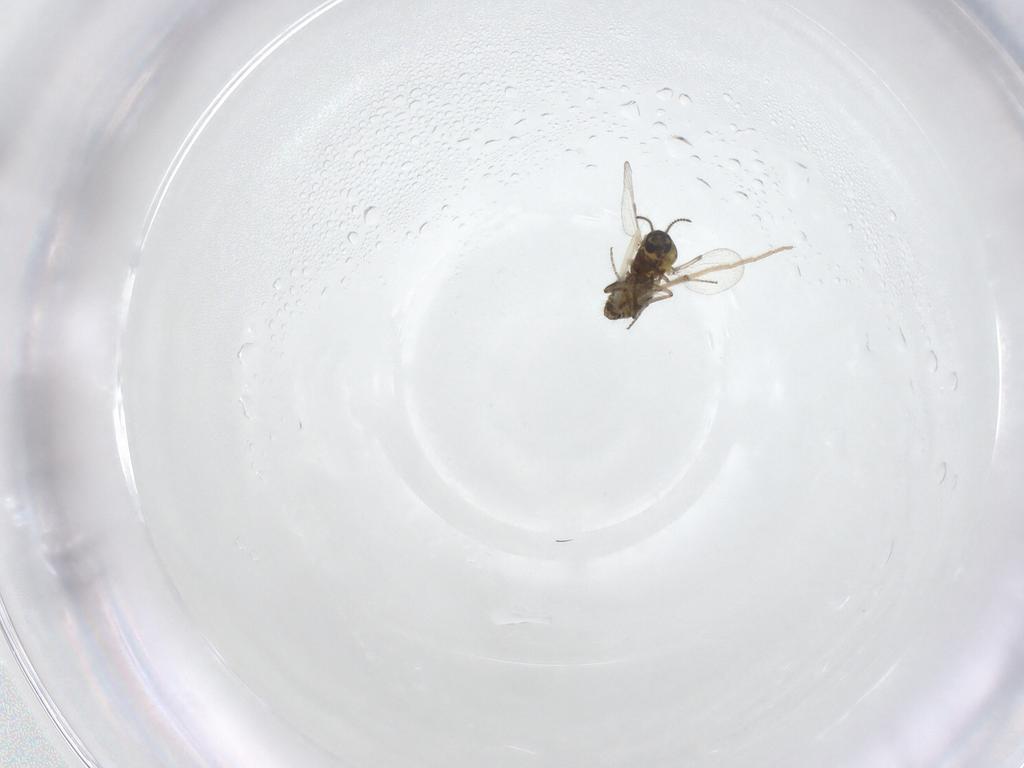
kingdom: Animalia
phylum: Arthropoda
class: Insecta
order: Diptera
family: Ceratopogonidae
